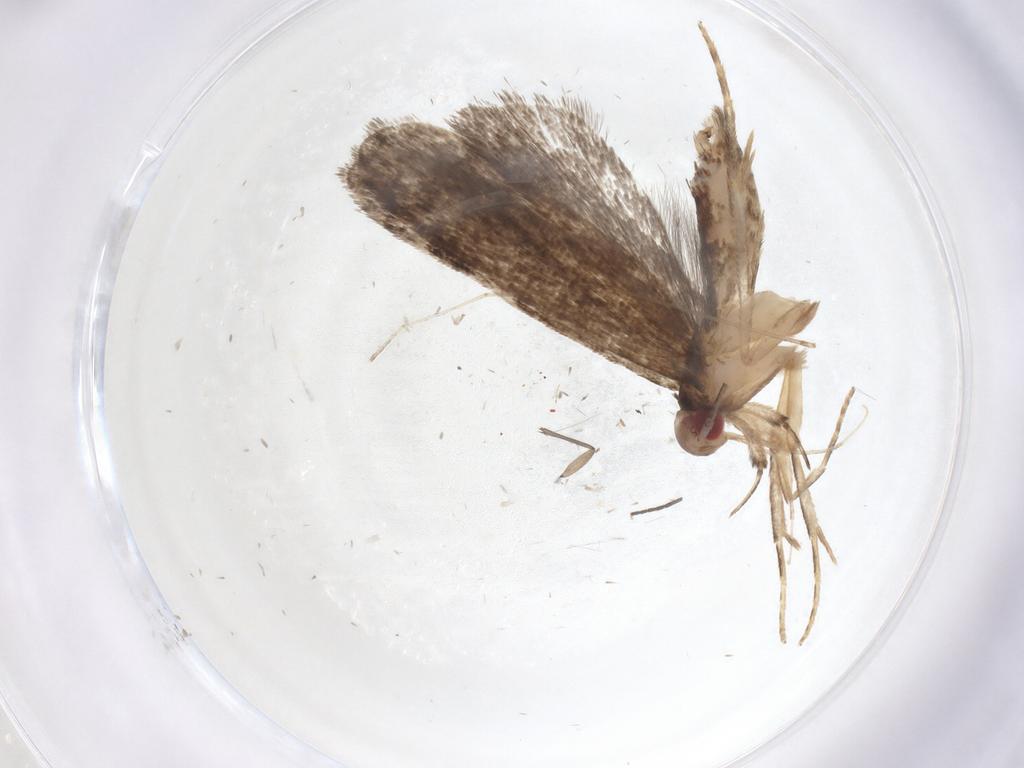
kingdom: Animalia
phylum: Arthropoda
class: Insecta
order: Lepidoptera
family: Gelechiidae
